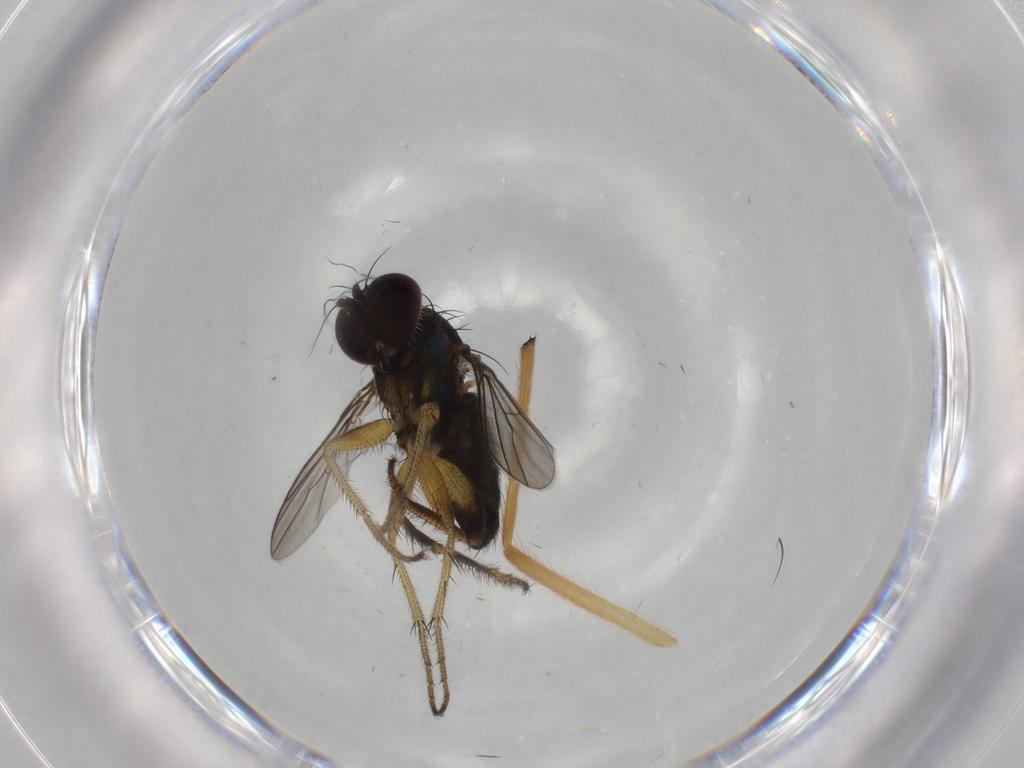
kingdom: Animalia
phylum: Arthropoda
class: Insecta
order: Diptera
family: Dolichopodidae
